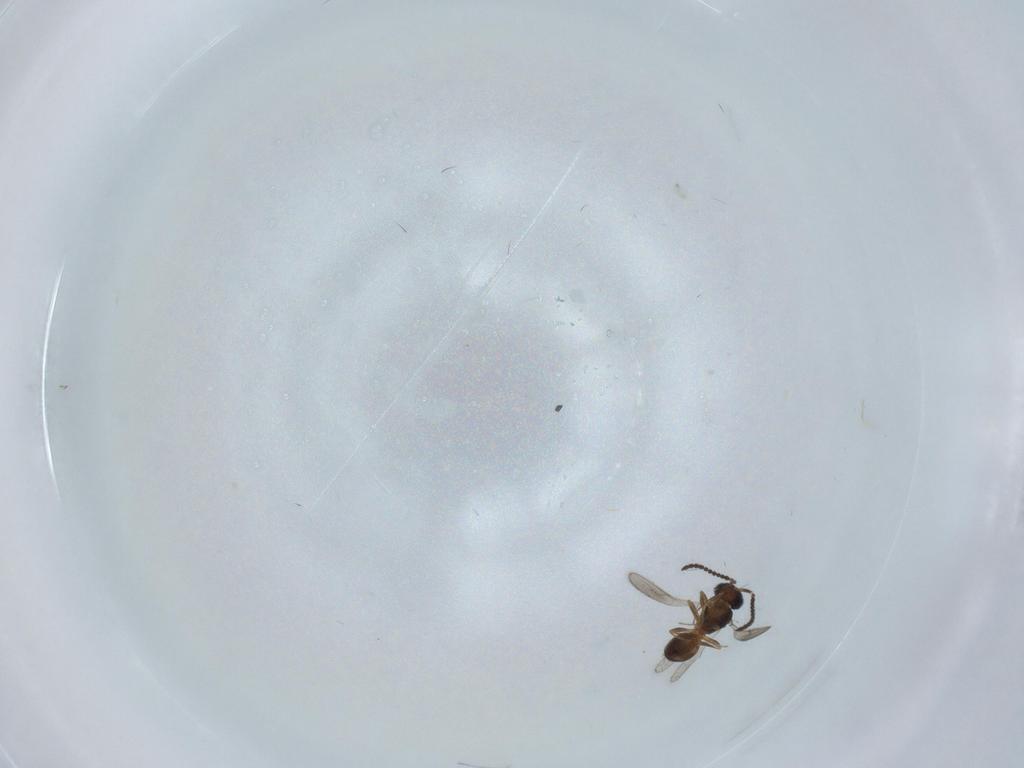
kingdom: Animalia
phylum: Arthropoda
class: Insecta
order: Hymenoptera
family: Scelionidae
